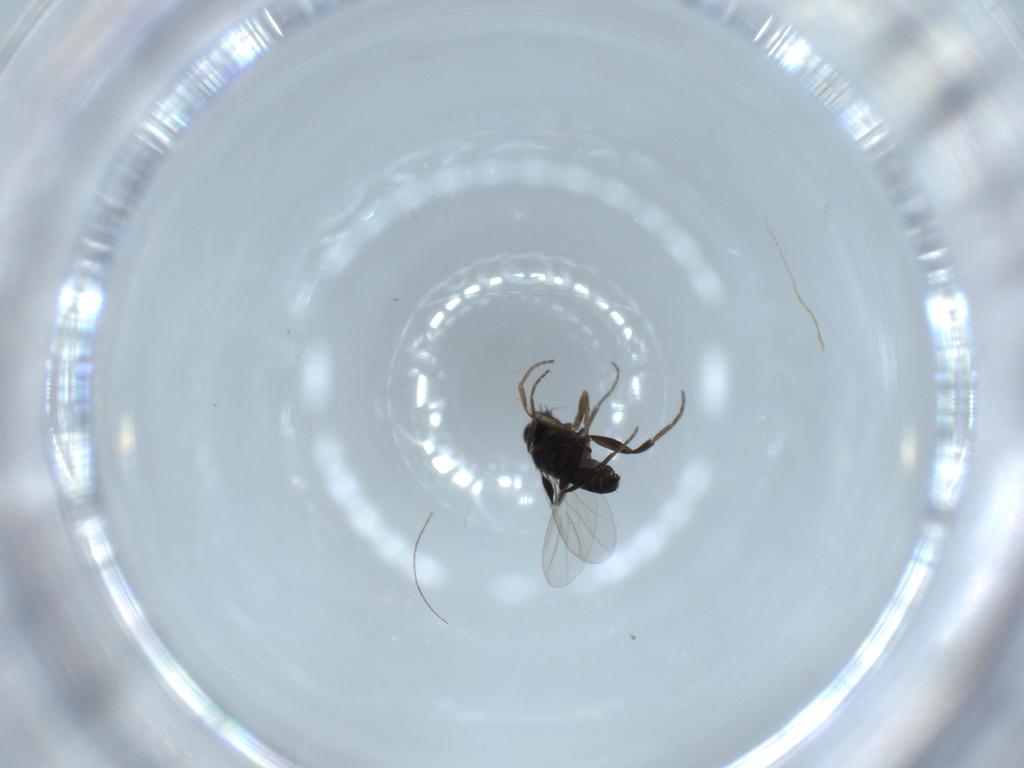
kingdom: Animalia
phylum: Arthropoda
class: Insecta
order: Diptera
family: Phoridae
